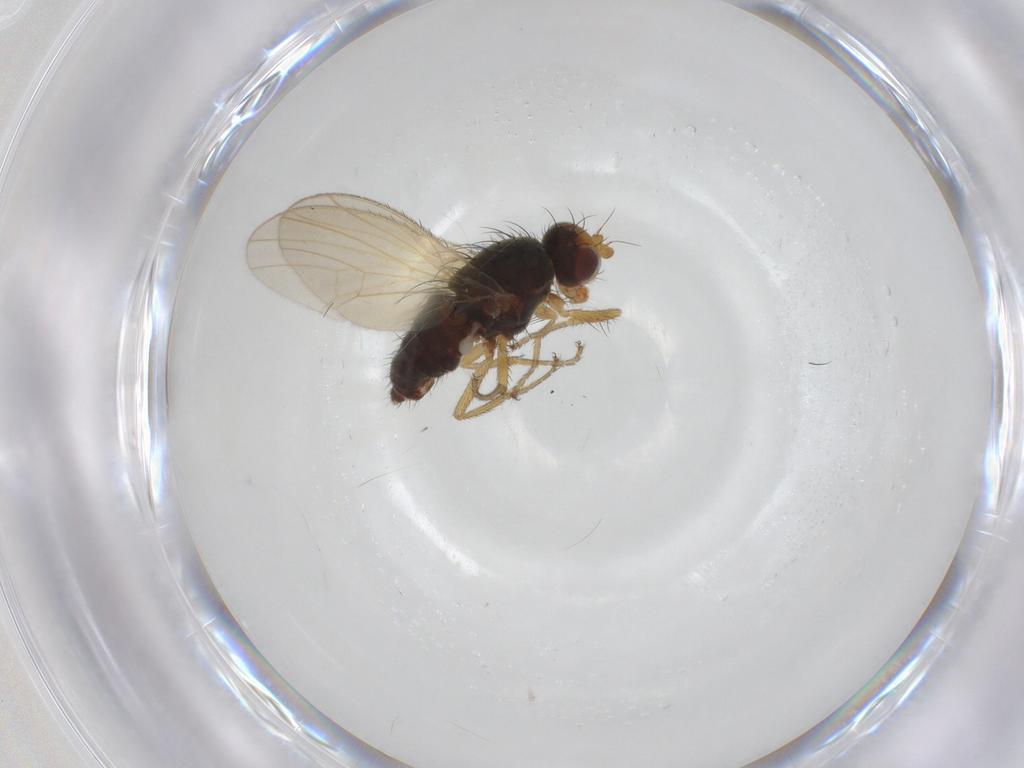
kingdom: Animalia
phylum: Arthropoda
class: Insecta
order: Diptera
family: Heleomyzidae
